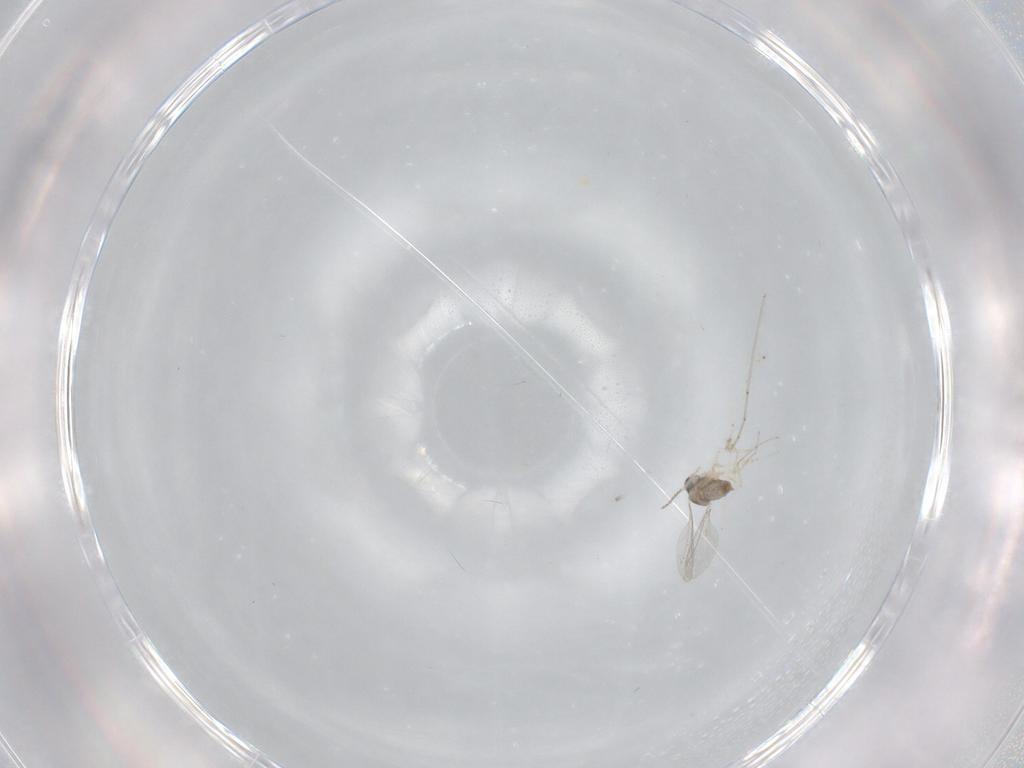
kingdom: Animalia
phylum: Arthropoda
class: Insecta
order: Diptera
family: Cecidomyiidae
